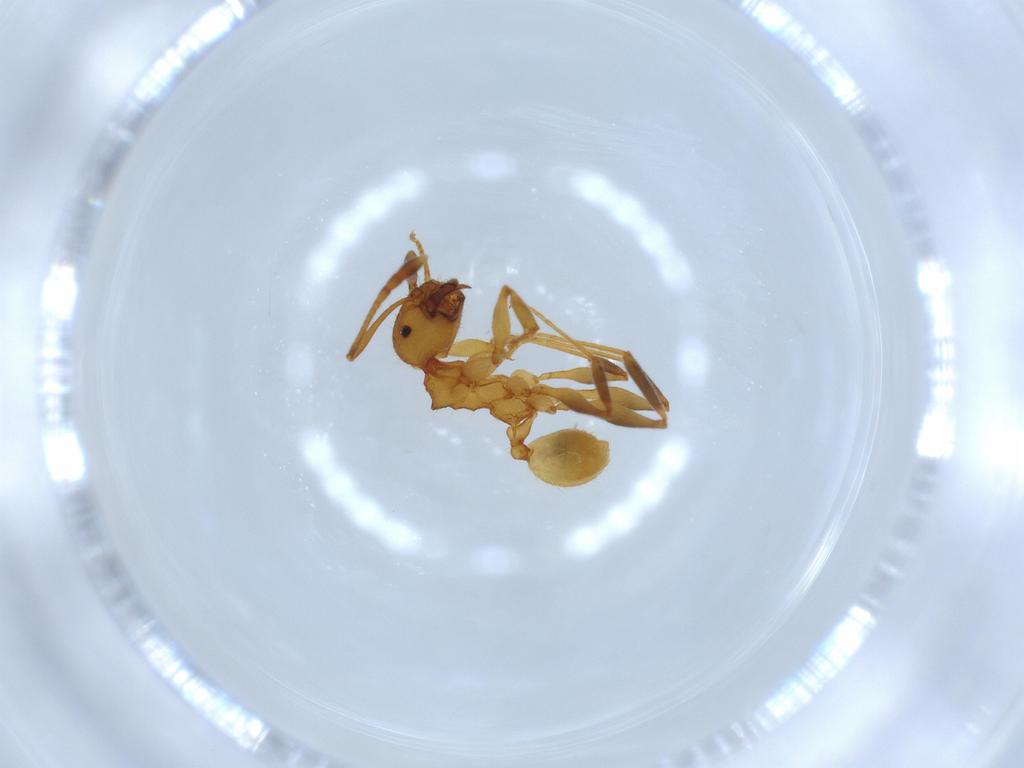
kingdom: Animalia
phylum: Arthropoda
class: Insecta
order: Hymenoptera
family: Formicidae
